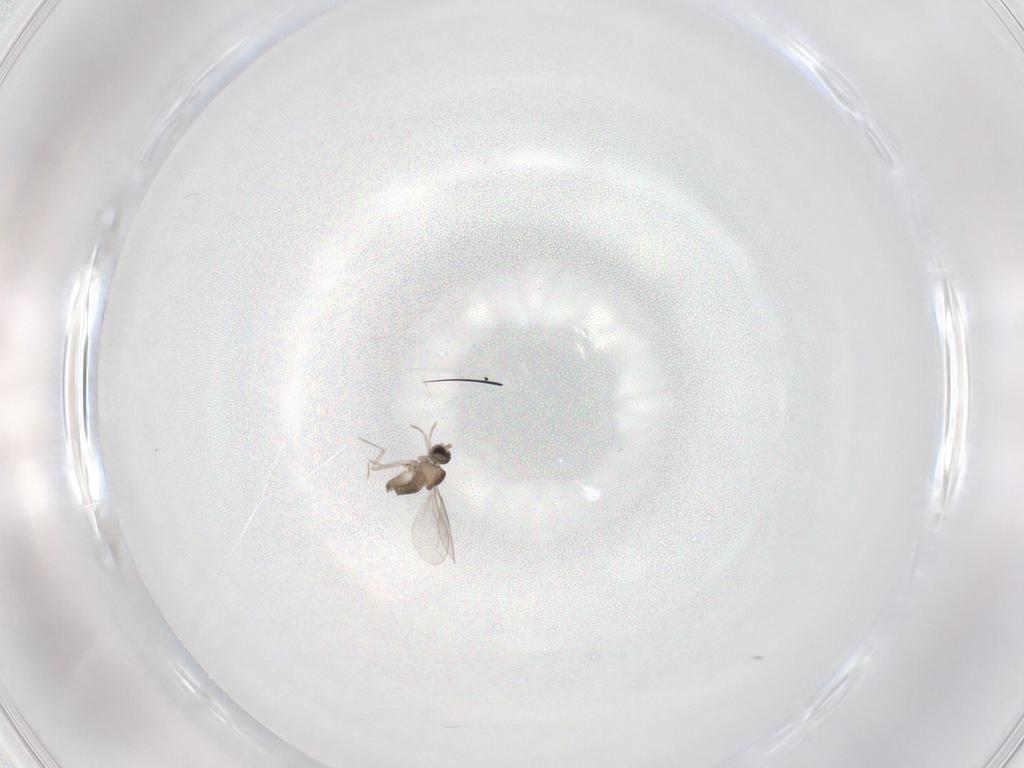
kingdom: Animalia
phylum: Arthropoda
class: Insecta
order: Diptera
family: Cecidomyiidae
